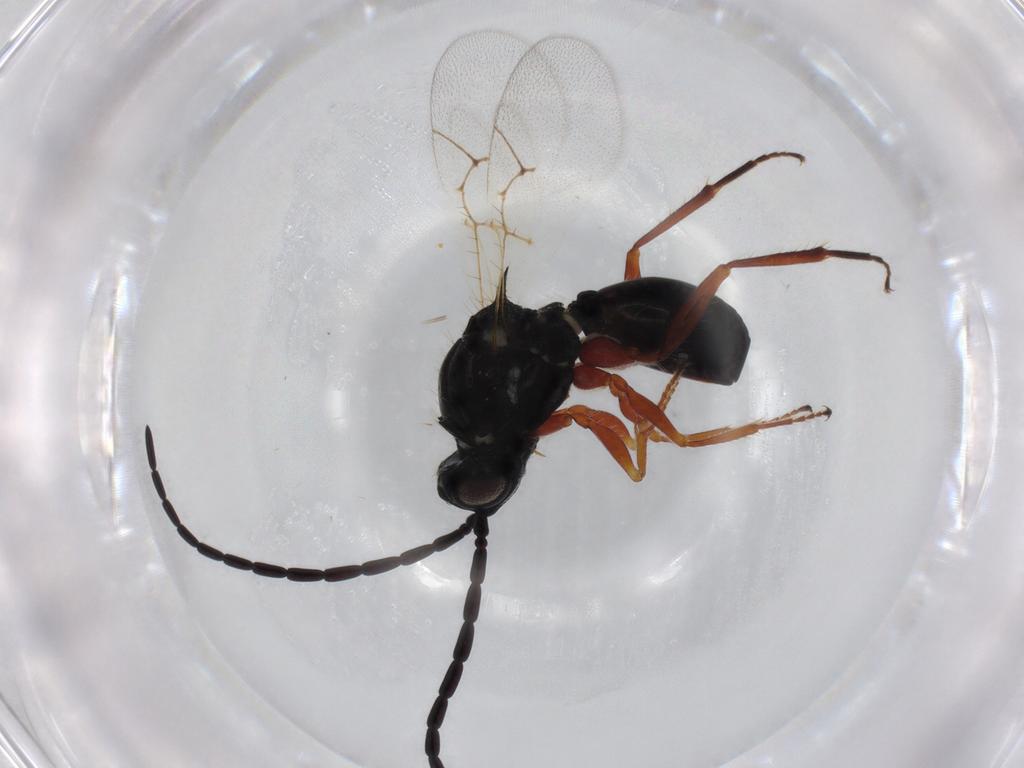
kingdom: Animalia
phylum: Arthropoda
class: Insecta
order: Hymenoptera
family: Figitidae
